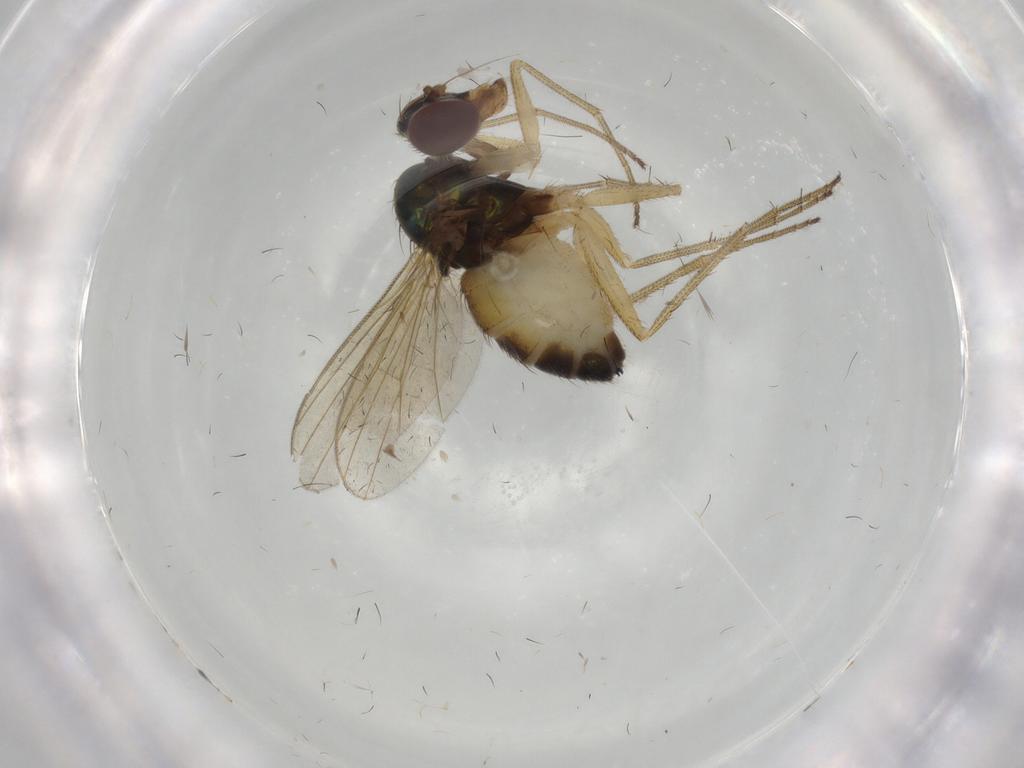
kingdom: Animalia
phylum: Arthropoda
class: Insecta
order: Diptera
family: Dolichopodidae
